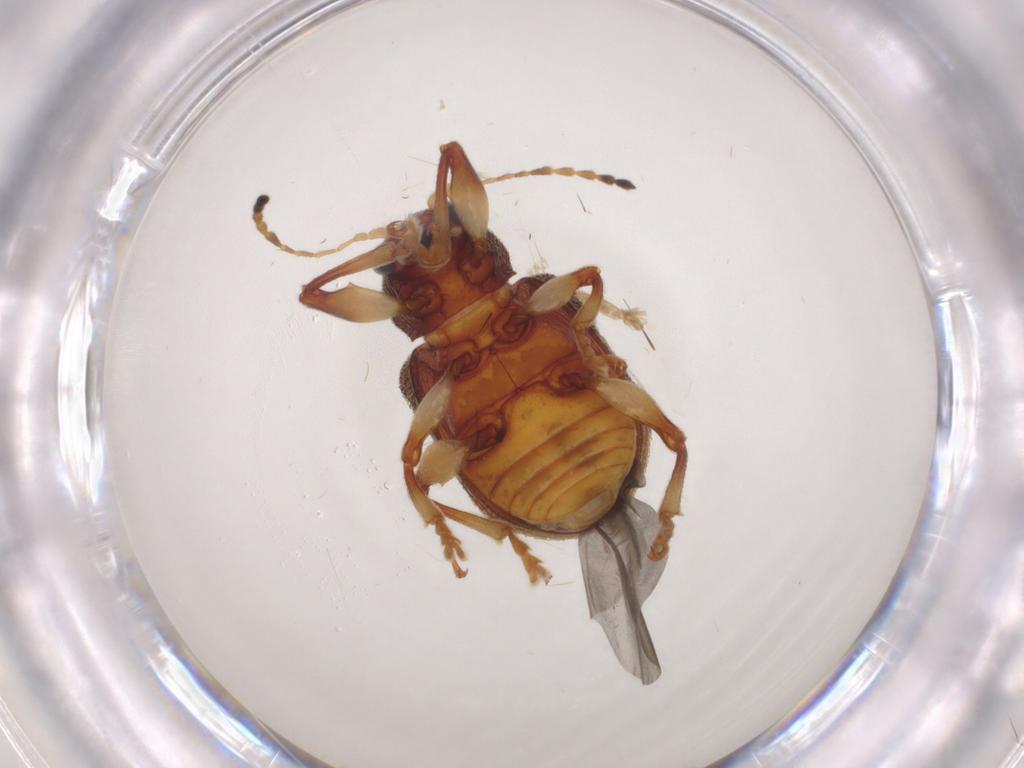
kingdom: Animalia
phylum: Arthropoda
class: Insecta
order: Coleoptera
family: Chrysomelidae
